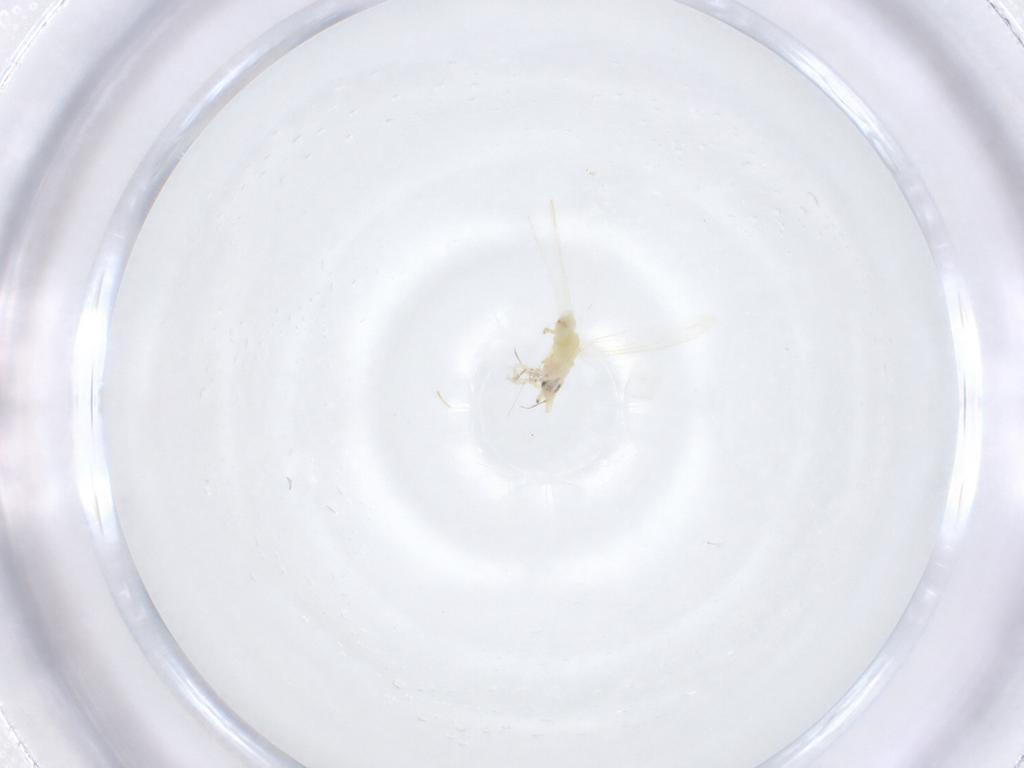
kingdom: Animalia
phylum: Arthropoda
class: Insecta
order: Hemiptera
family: Aleyrodidae
